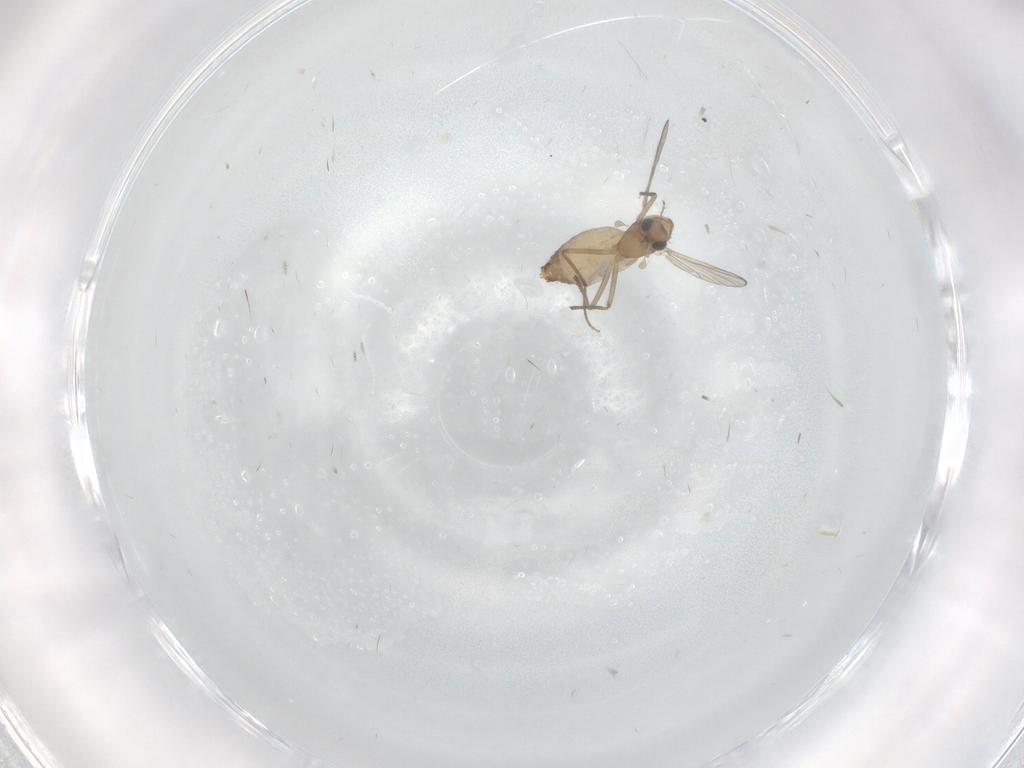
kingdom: Animalia
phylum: Arthropoda
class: Insecta
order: Diptera
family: Chironomidae
